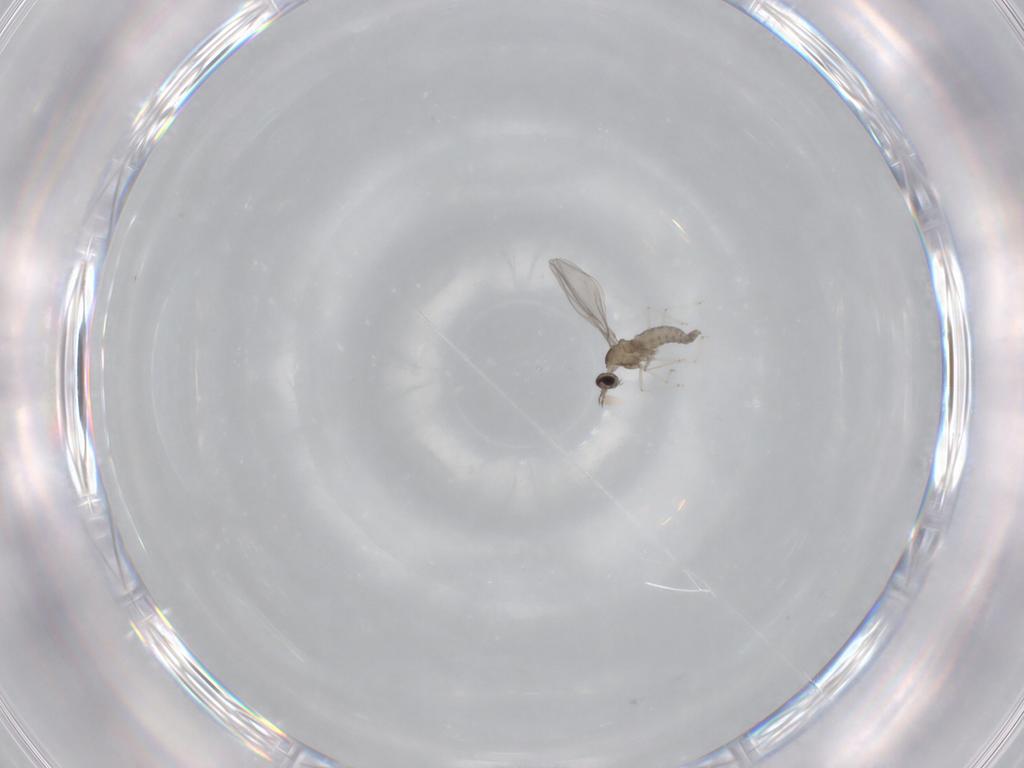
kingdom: Animalia
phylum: Arthropoda
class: Insecta
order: Diptera
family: Cecidomyiidae
